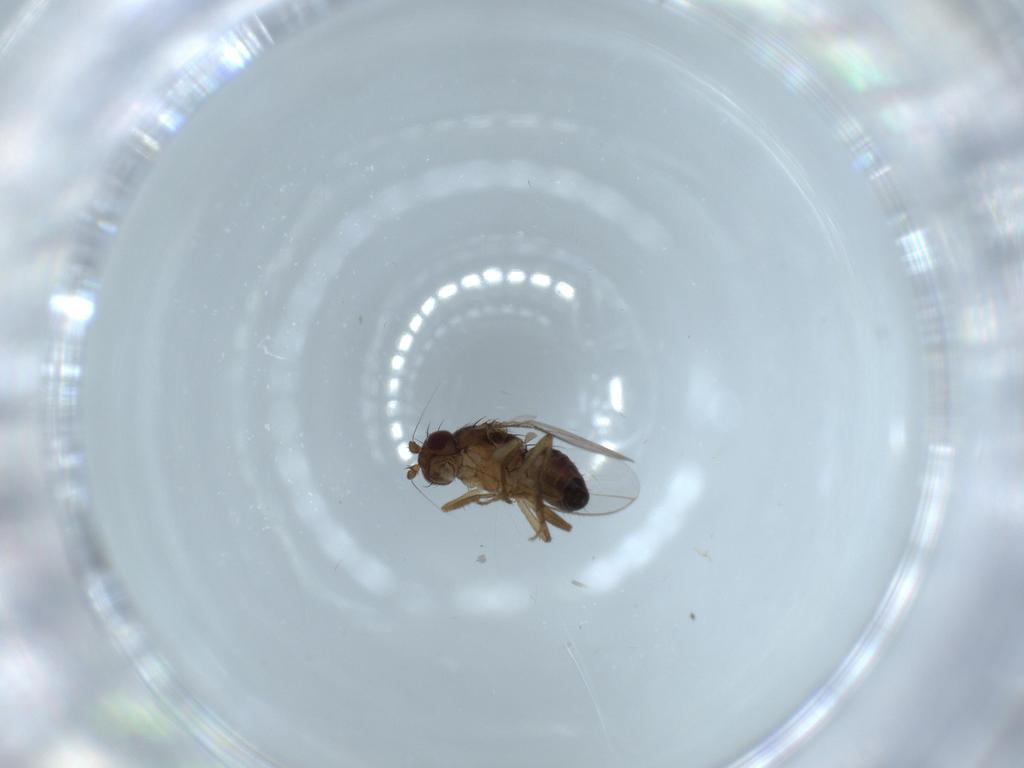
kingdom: Animalia
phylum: Arthropoda
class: Insecta
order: Diptera
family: Sphaeroceridae
